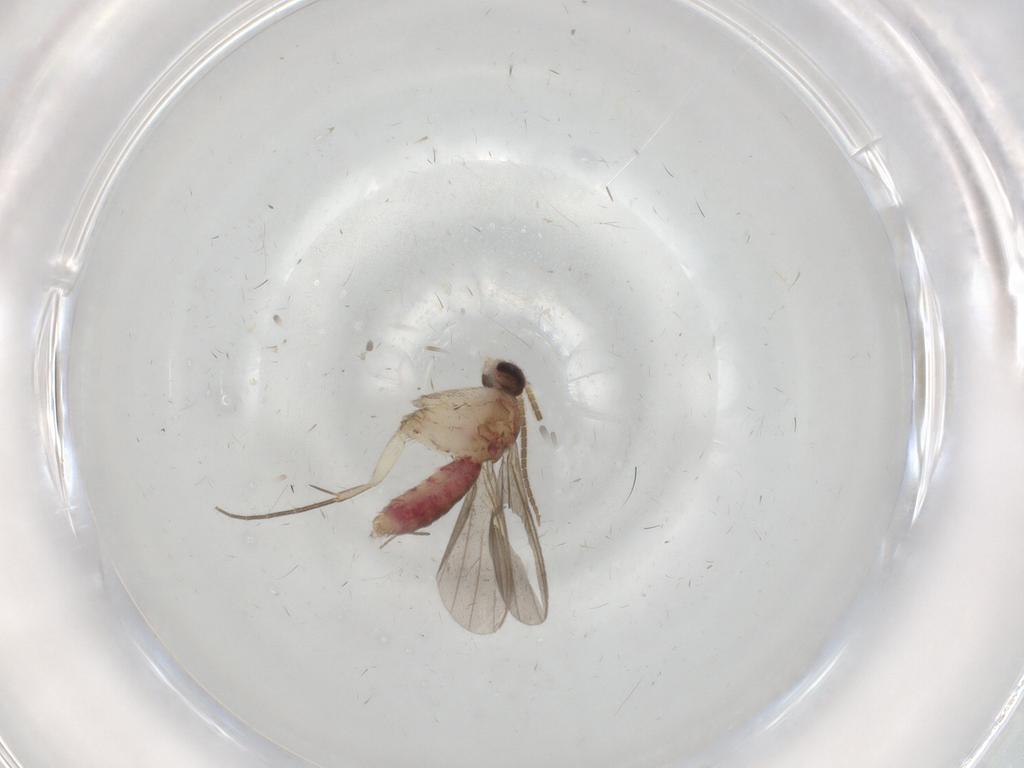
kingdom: Animalia
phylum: Arthropoda
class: Insecta
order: Diptera
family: Mycetophilidae
